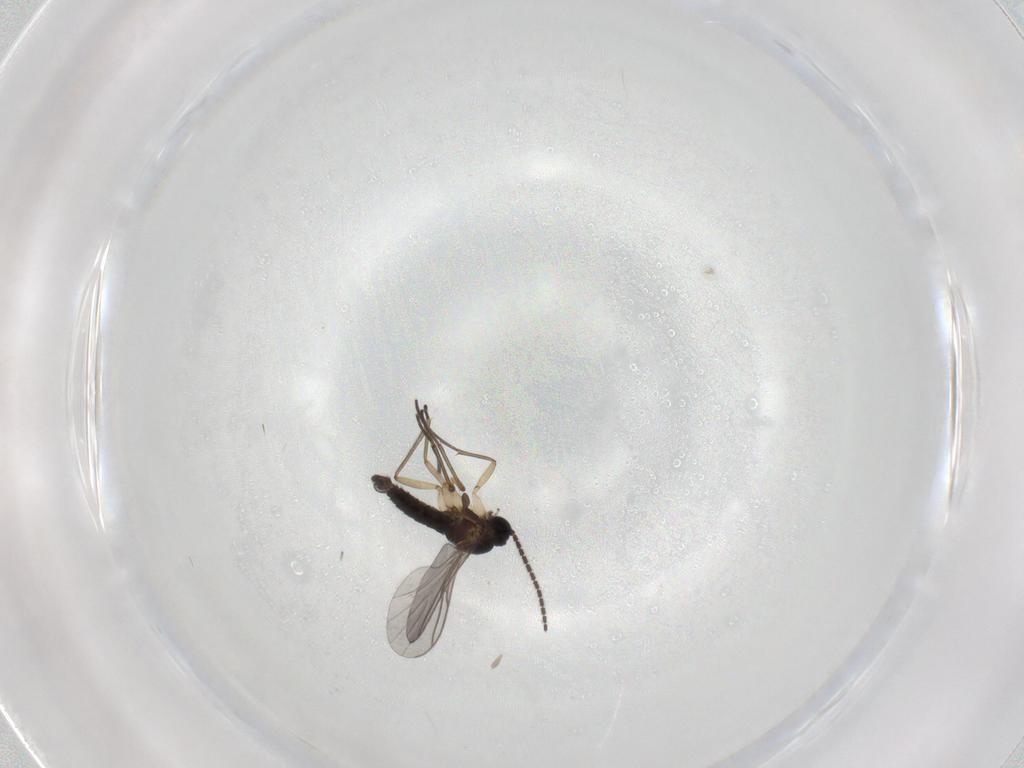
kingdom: Animalia
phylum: Arthropoda
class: Insecta
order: Diptera
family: Sciaridae
